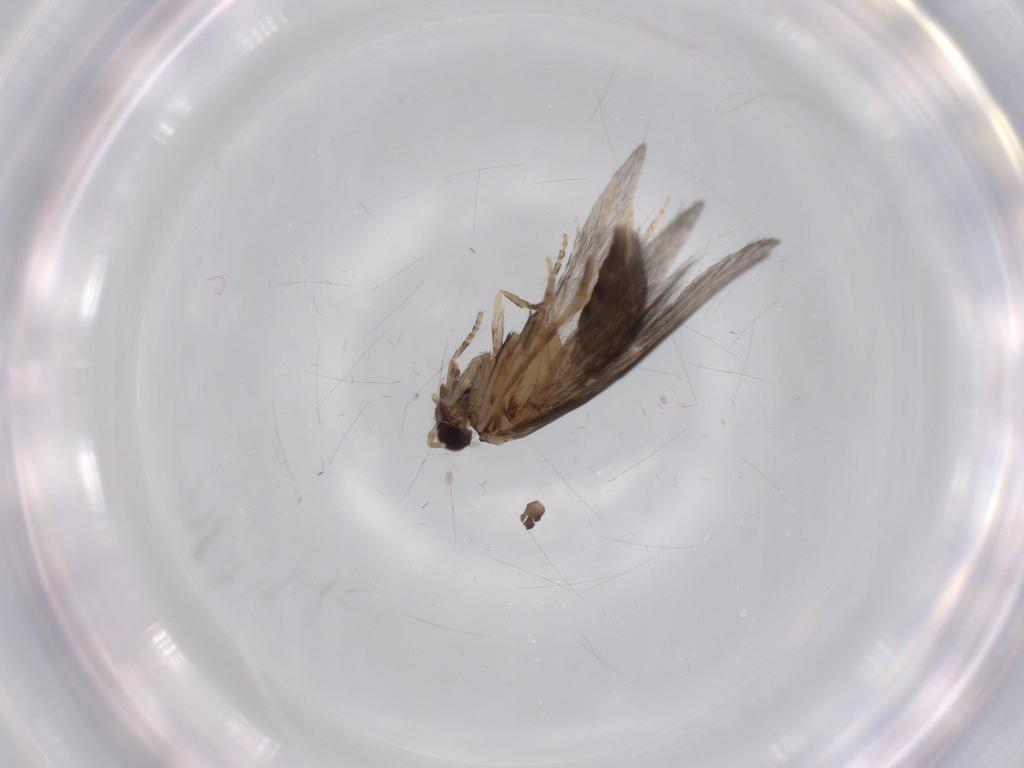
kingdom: Animalia
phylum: Arthropoda
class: Insecta
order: Trichoptera
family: Hydroptilidae
